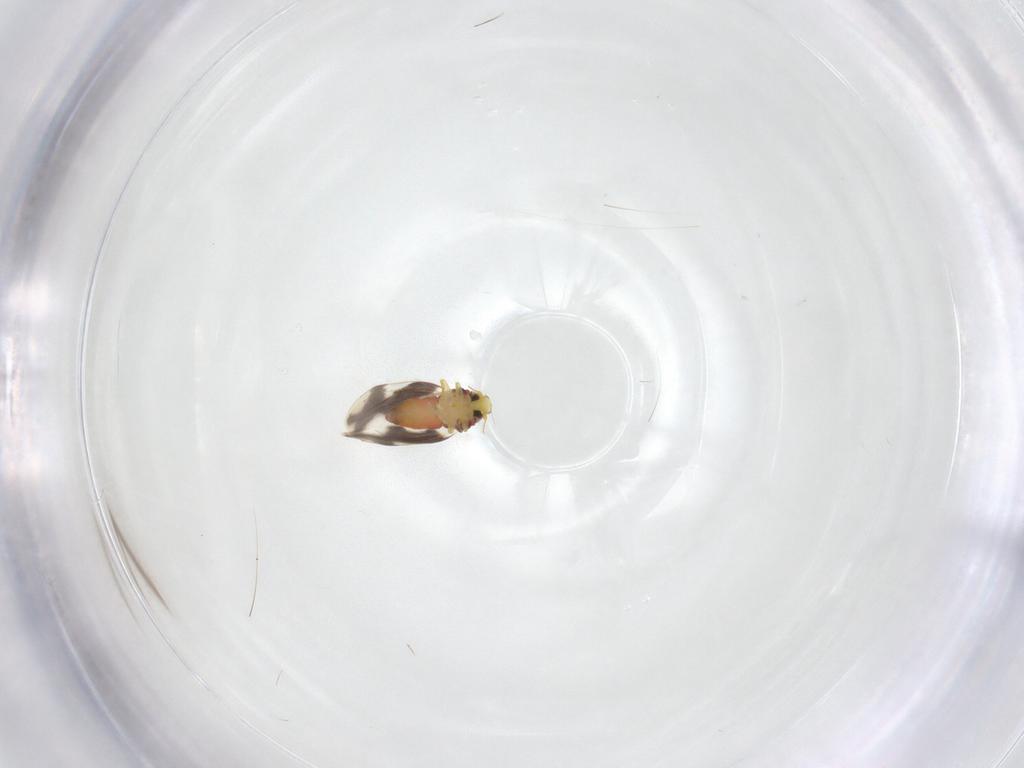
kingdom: Animalia
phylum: Arthropoda
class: Insecta
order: Hemiptera
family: Aleyrodidae
